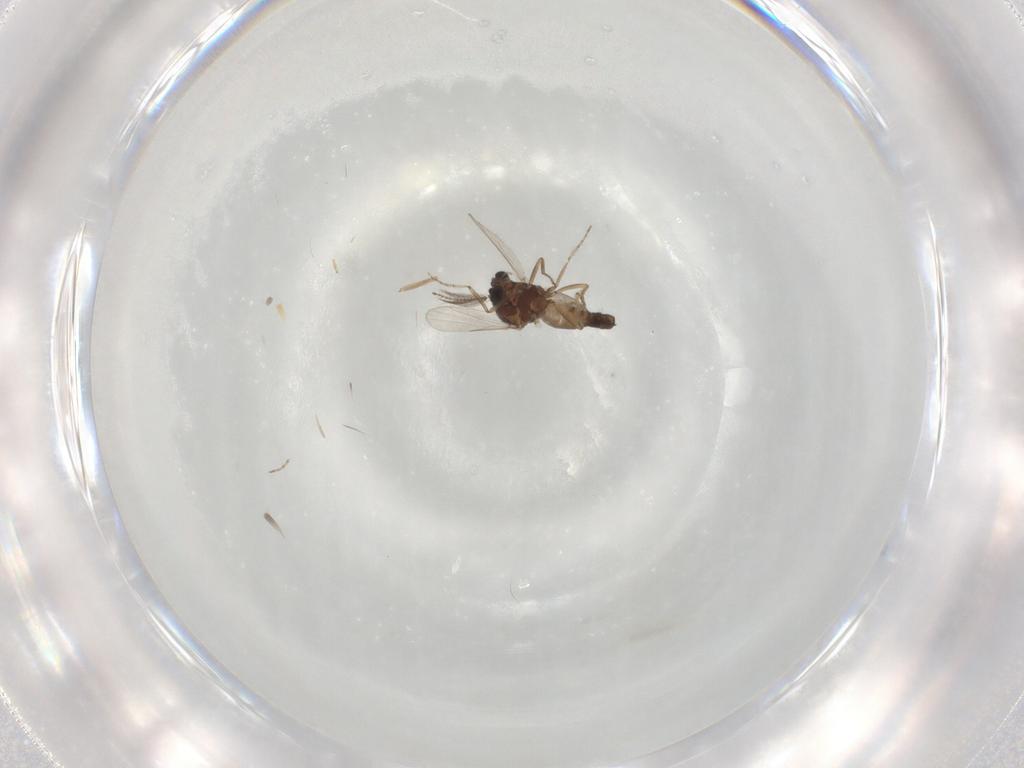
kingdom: Animalia
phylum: Arthropoda
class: Insecta
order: Diptera
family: Ceratopogonidae
